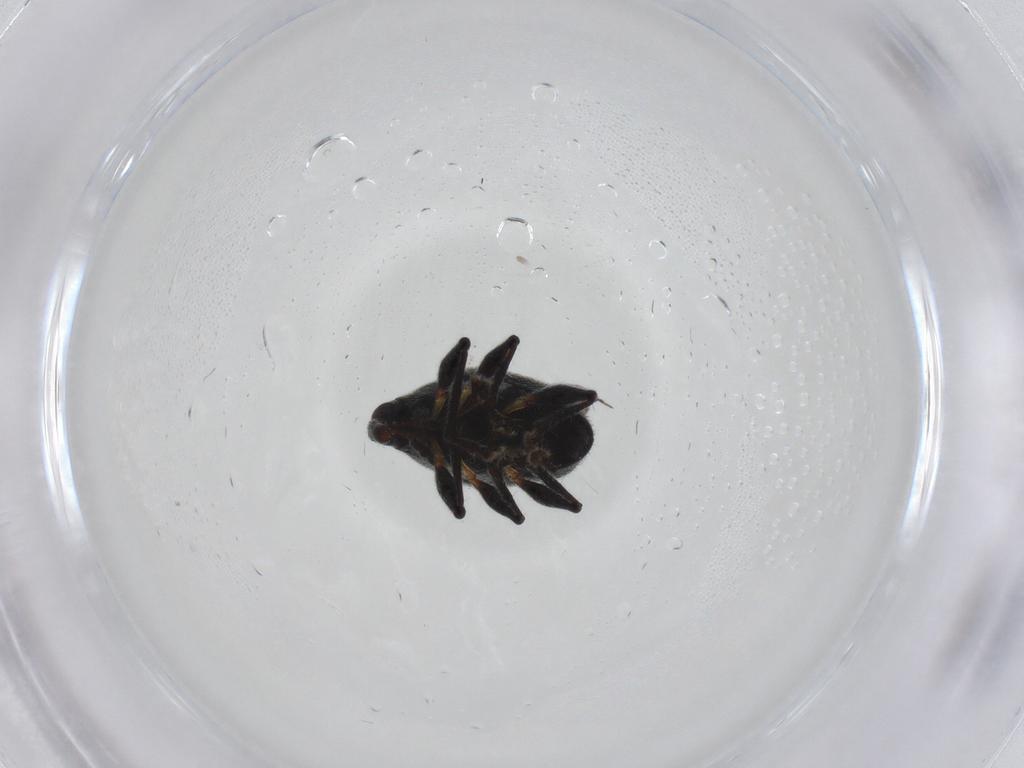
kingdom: Animalia
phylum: Arthropoda
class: Insecta
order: Coleoptera
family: Brentidae
